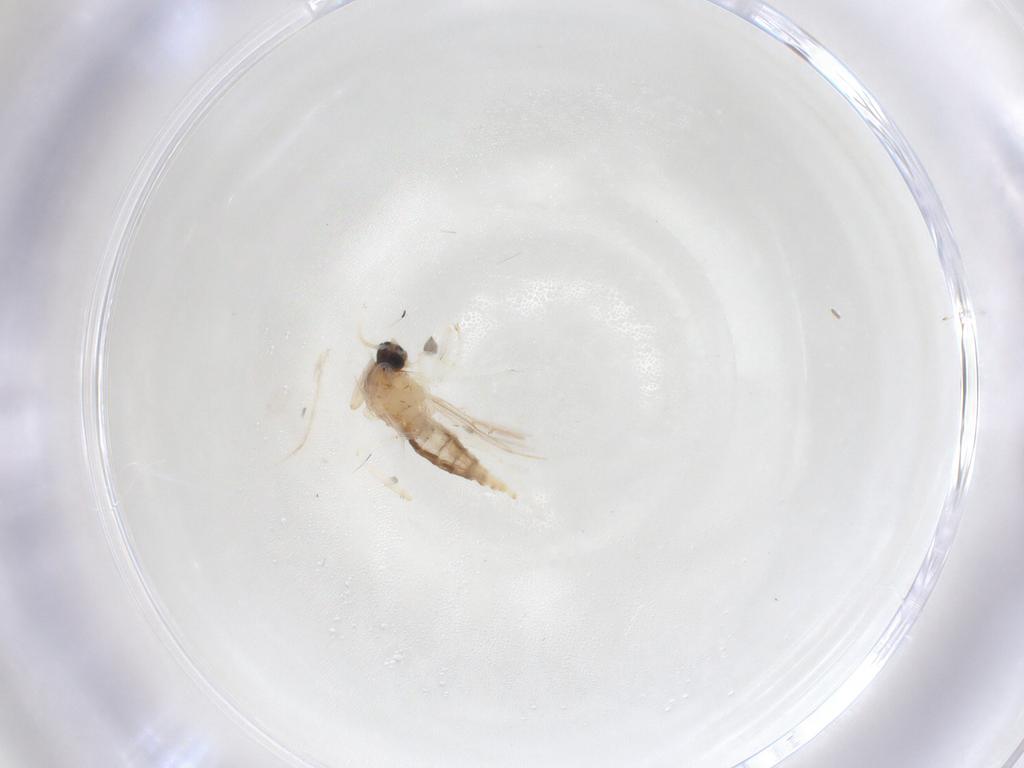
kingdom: Animalia
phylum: Arthropoda
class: Insecta
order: Diptera
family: Cecidomyiidae
